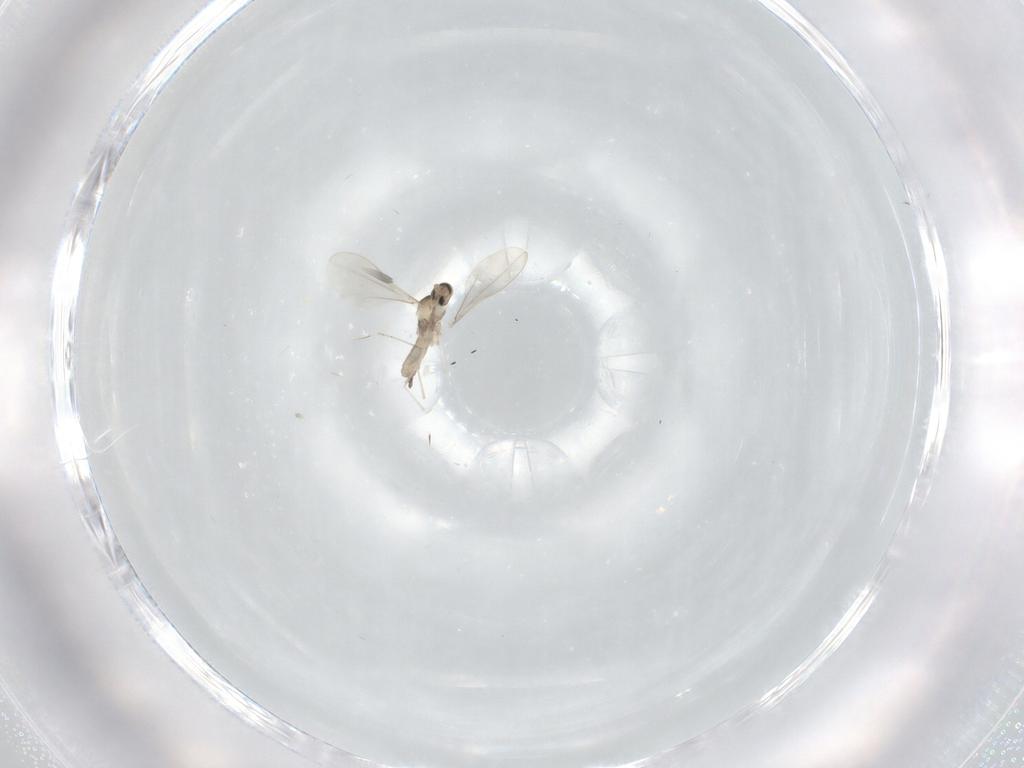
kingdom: Animalia
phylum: Arthropoda
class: Insecta
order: Diptera
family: Cecidomyiidae
